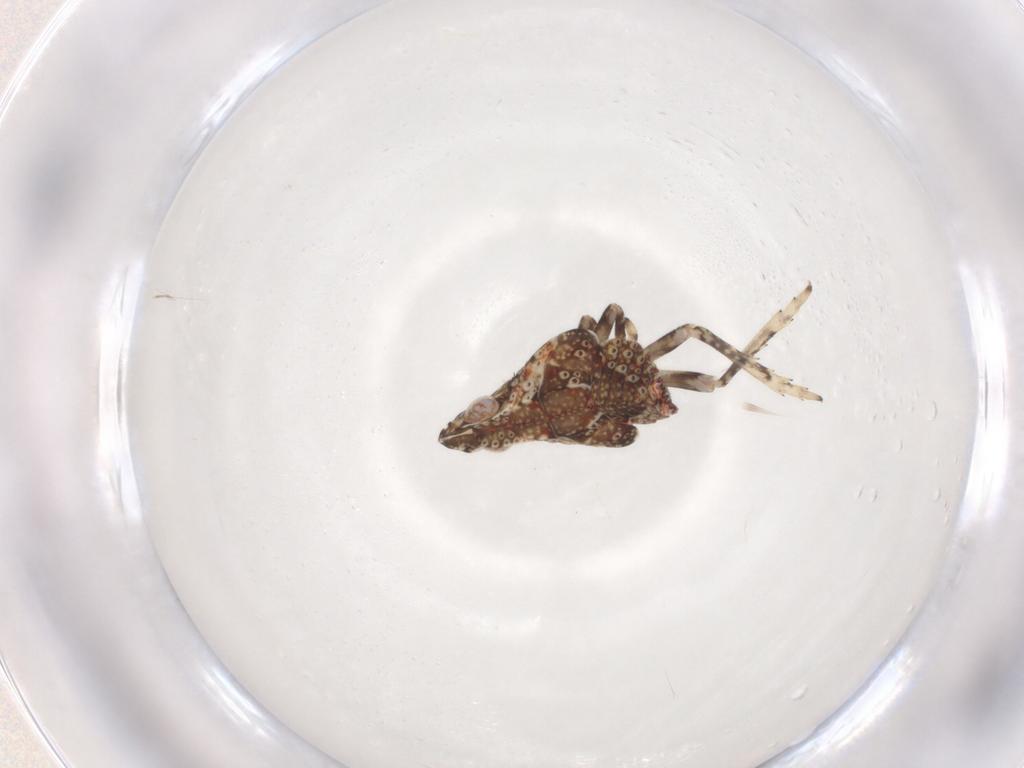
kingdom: Animalia
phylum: Arthropoda
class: Insecta
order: Hemiptera
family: Tropiduchidae
